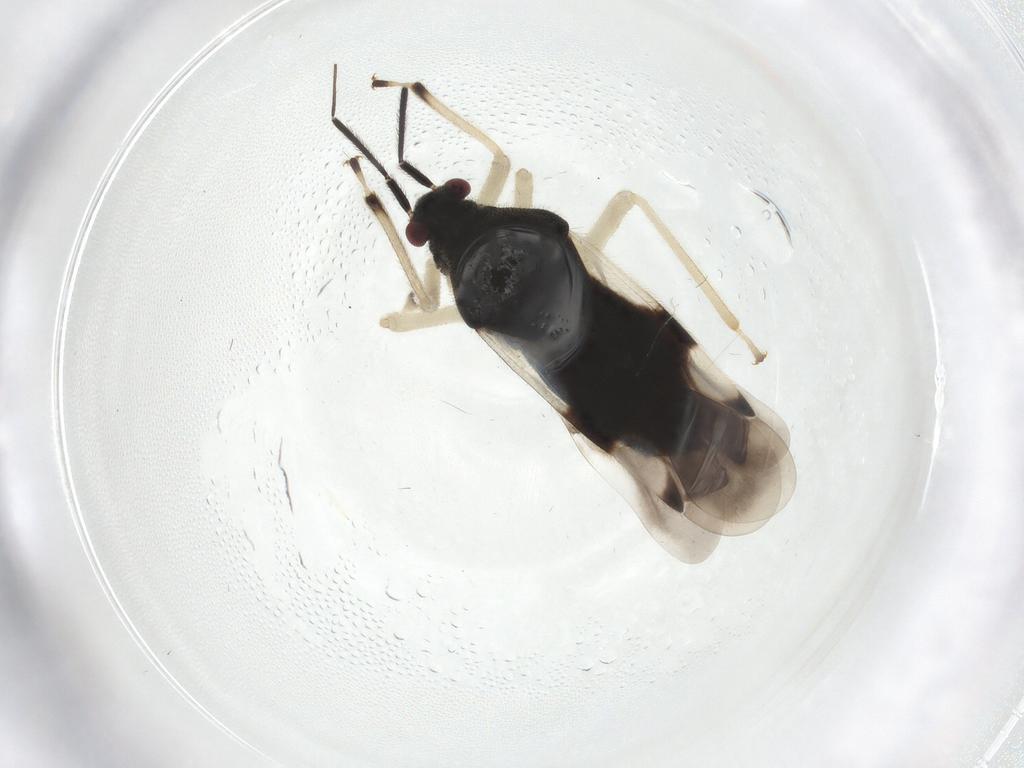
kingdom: Animalia
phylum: Arthropoda
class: Insecta
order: Hemiptera
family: Miridae
